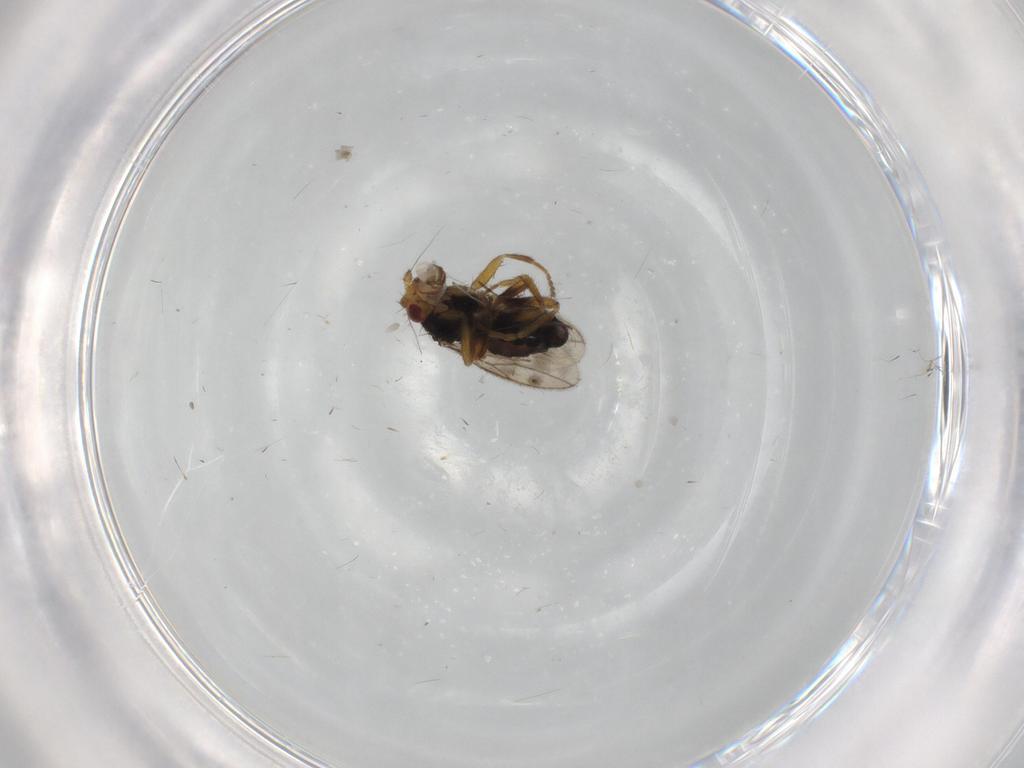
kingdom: Animalia
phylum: Arthropoda
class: Insecta
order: Diptera
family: Sphaeroceridae
